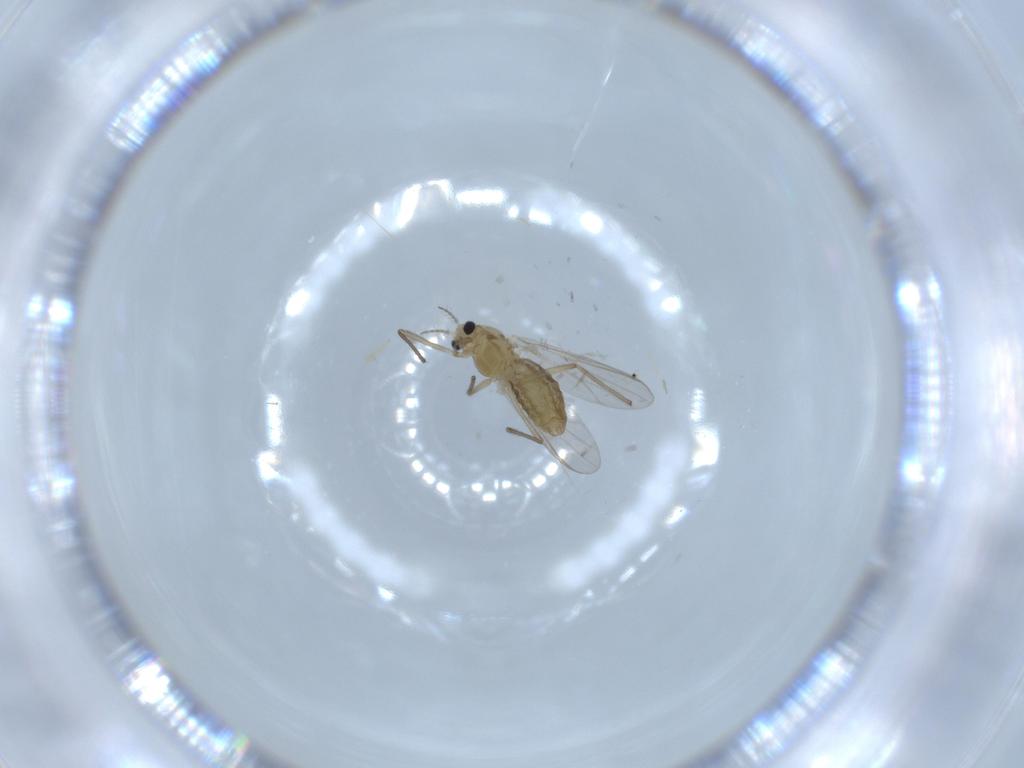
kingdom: Animalia
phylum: Arthropoda
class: Insecta
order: Diptera
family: Chironomidae
